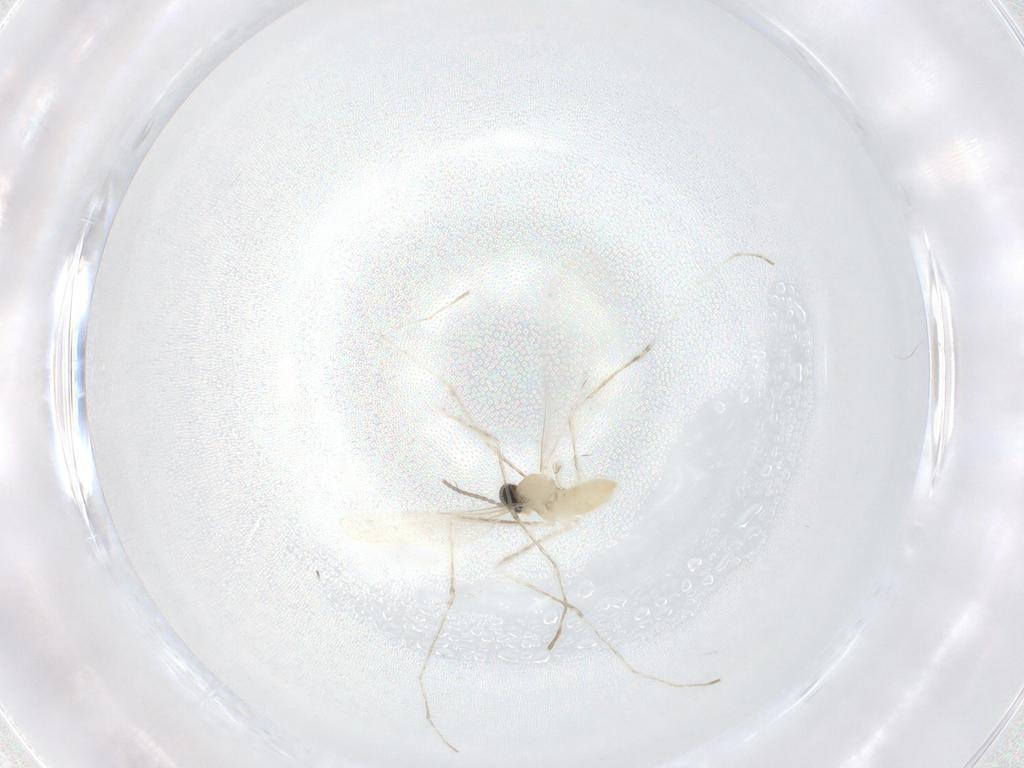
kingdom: Animalia
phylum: Arthropoda
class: Insecta
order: Diptera
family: Cecidomyiidae
